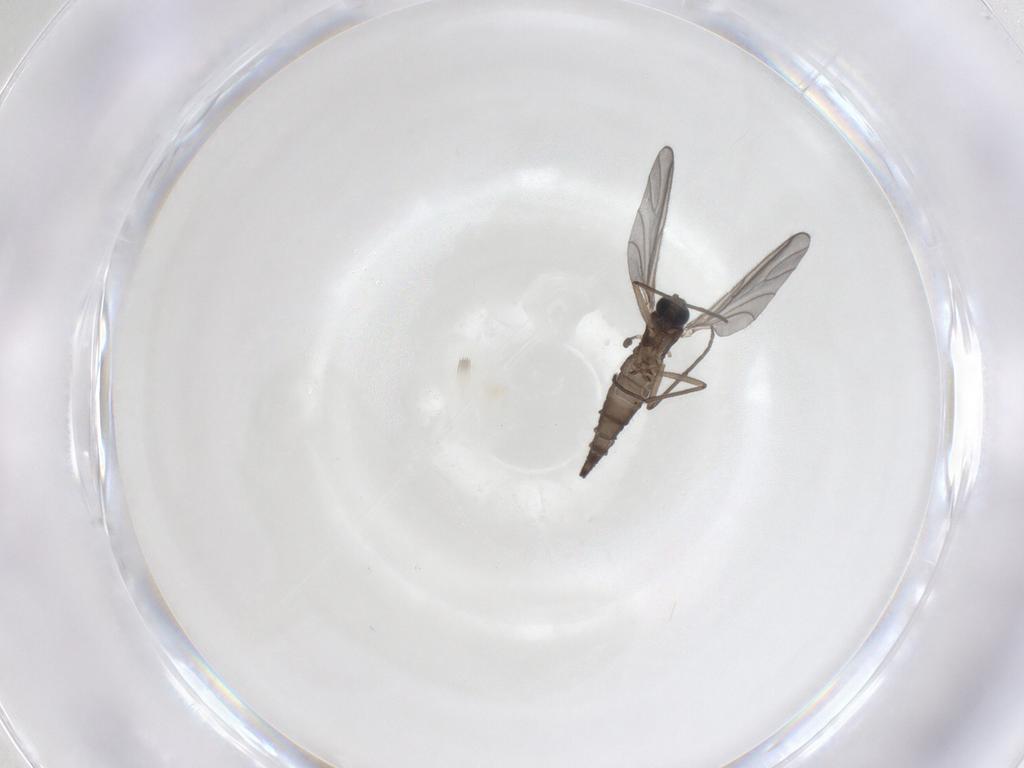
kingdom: Animalia
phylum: Arthropoda
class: Insecta
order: Diptera
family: Sciaridae
